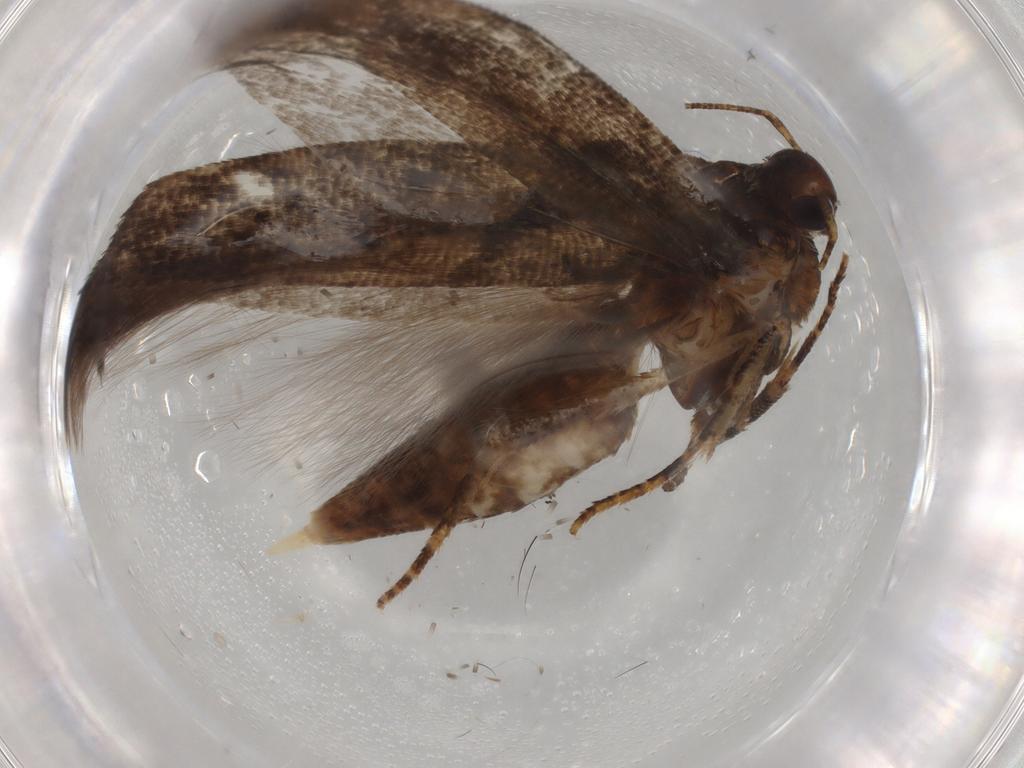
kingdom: Animalia
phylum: Arthropoda
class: Insecta
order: Lepidoptera
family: Gelechiidae
